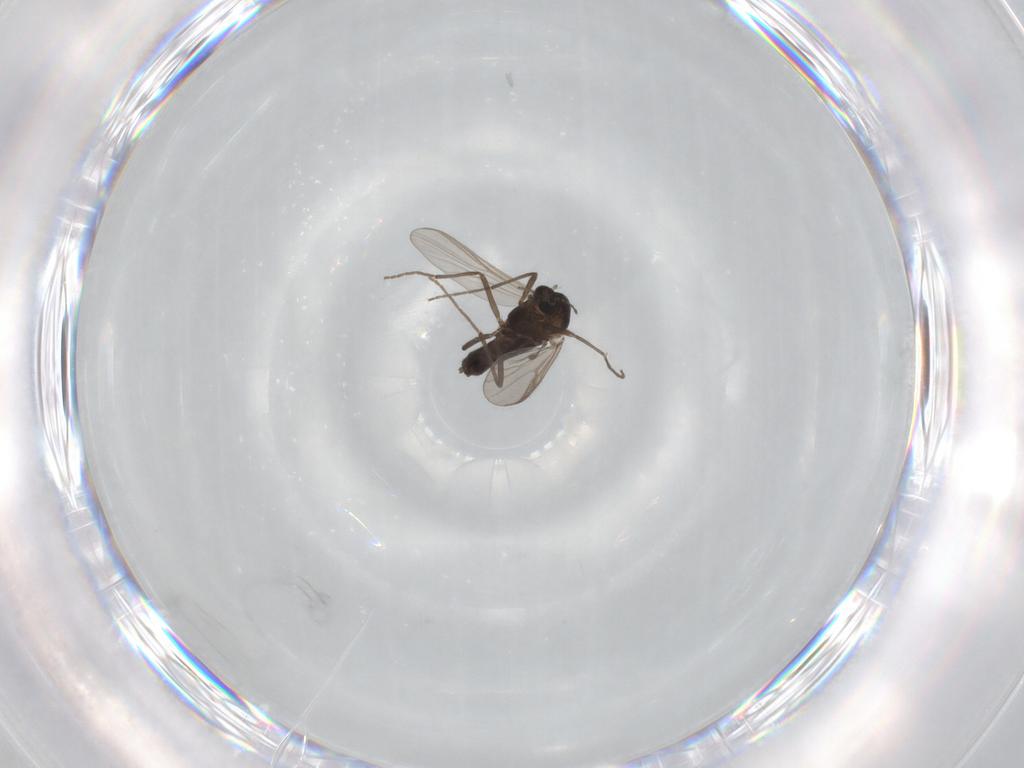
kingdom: Animalia
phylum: Arthropoda
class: Insecta
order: Diptera
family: Chironomidae
